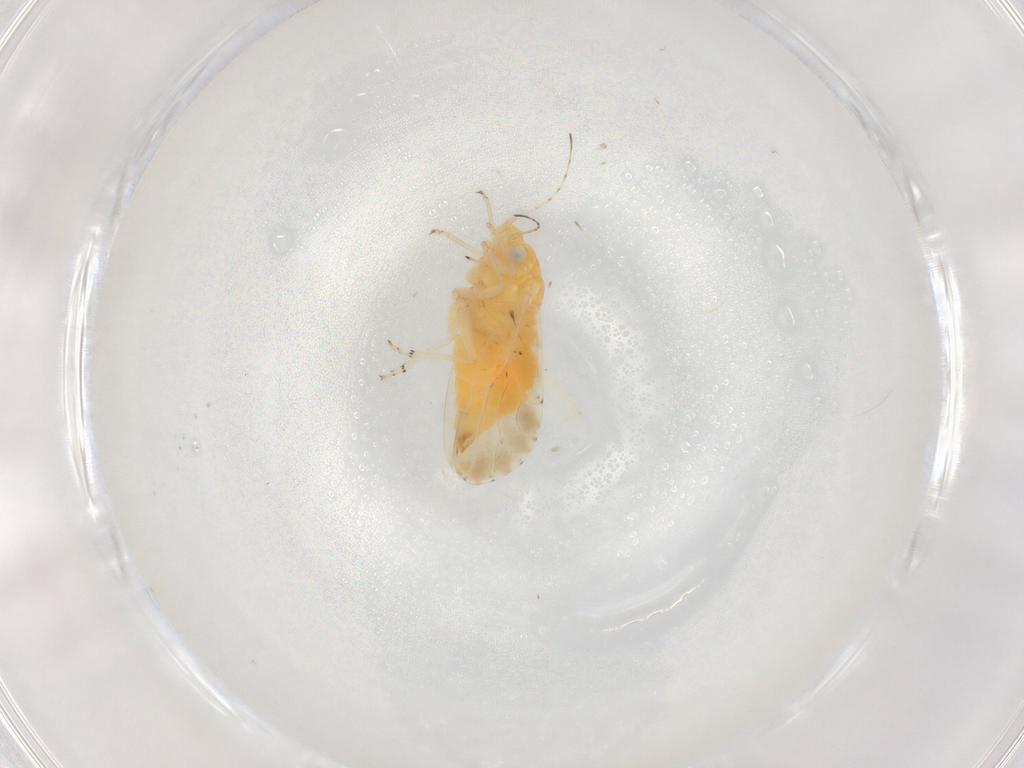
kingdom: Animalia
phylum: Arthropoda
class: Insecta
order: Hemiptera
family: Psyllidae
